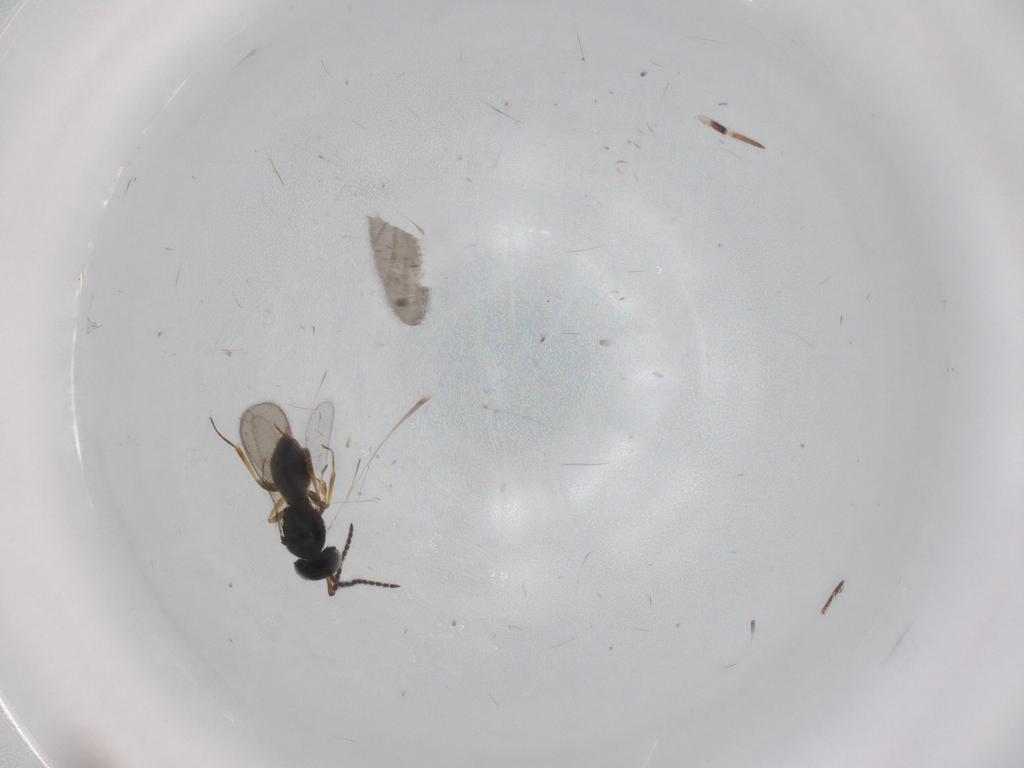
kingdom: Animalia
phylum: Arthropoda
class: Insecta
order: Hymenoptera
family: Scelionidae
